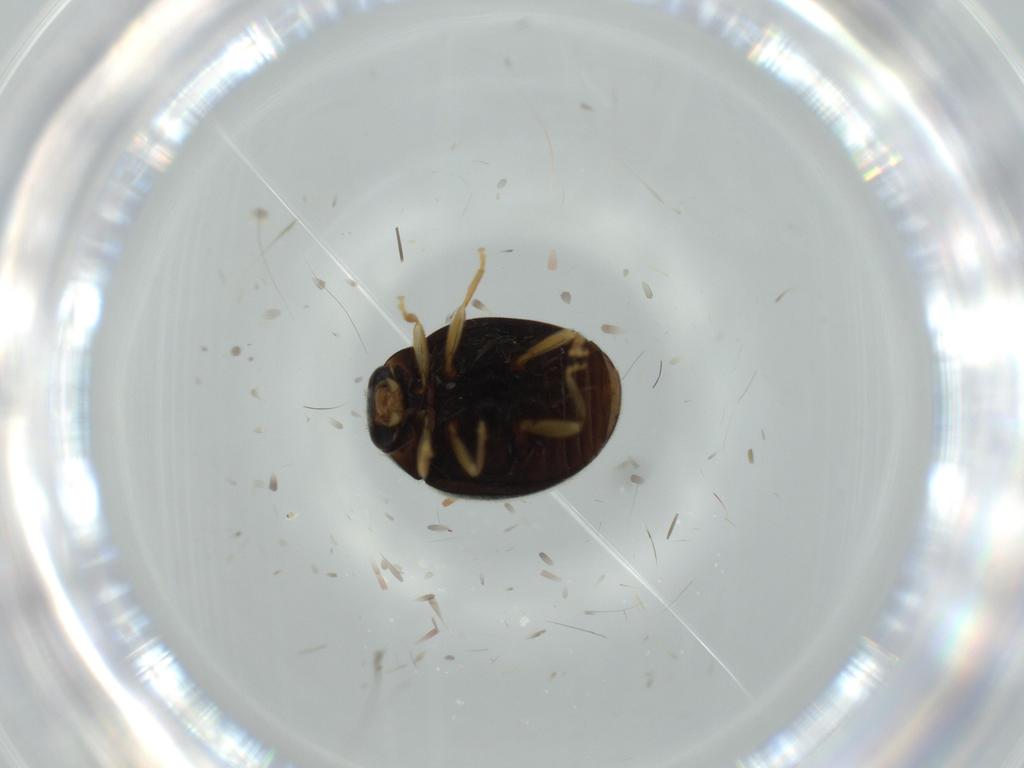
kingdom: Animalia
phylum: Arthropoda
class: Insecta
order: Coleoptera
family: Coccinellidae
